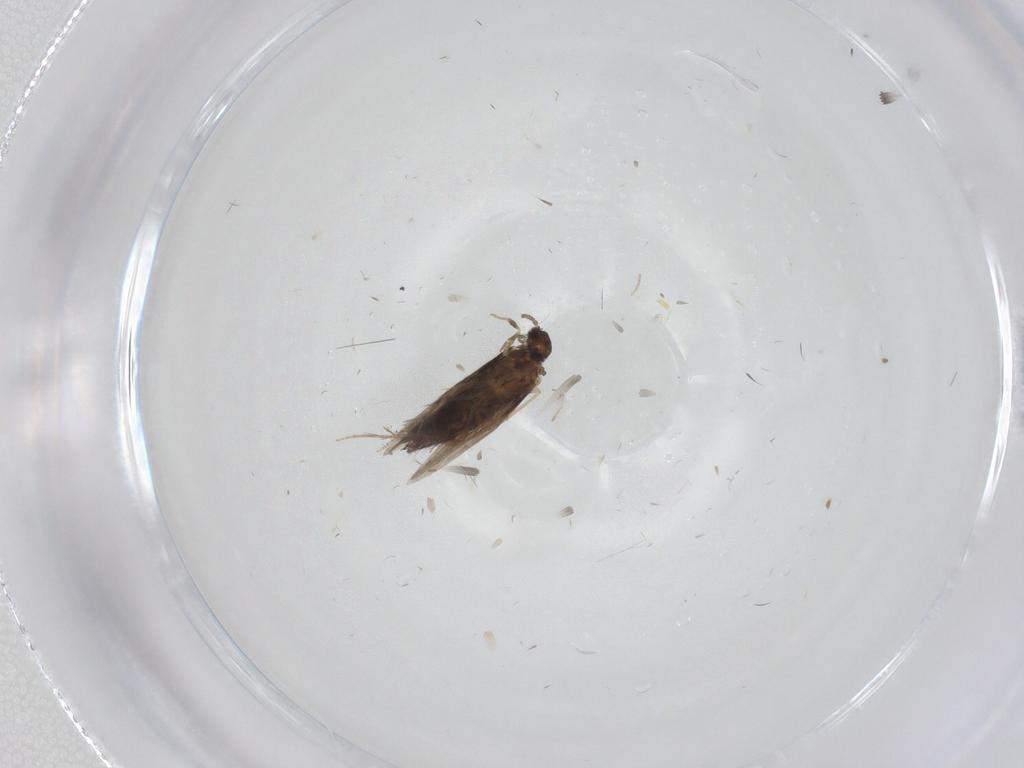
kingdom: Animalia
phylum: Arthropoda
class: Insecta
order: Trichoptera
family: Hydroptilidae
